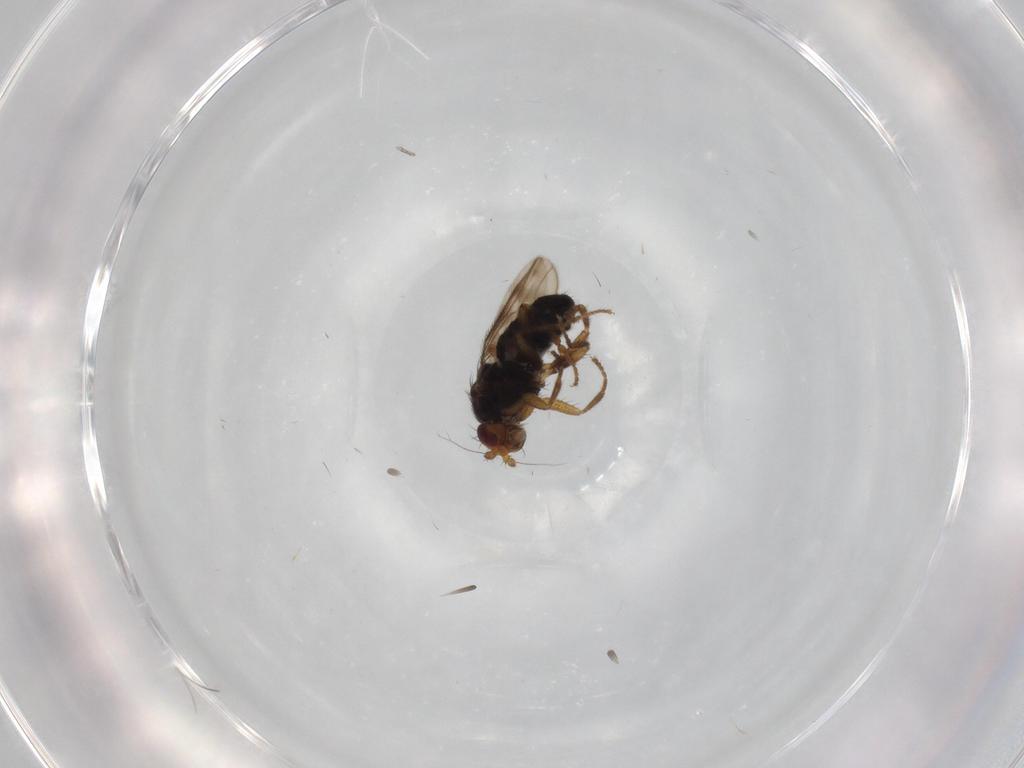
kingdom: Animalia
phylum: Arthropoda
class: Insecta
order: Diptera
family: Sphaeroceridae
